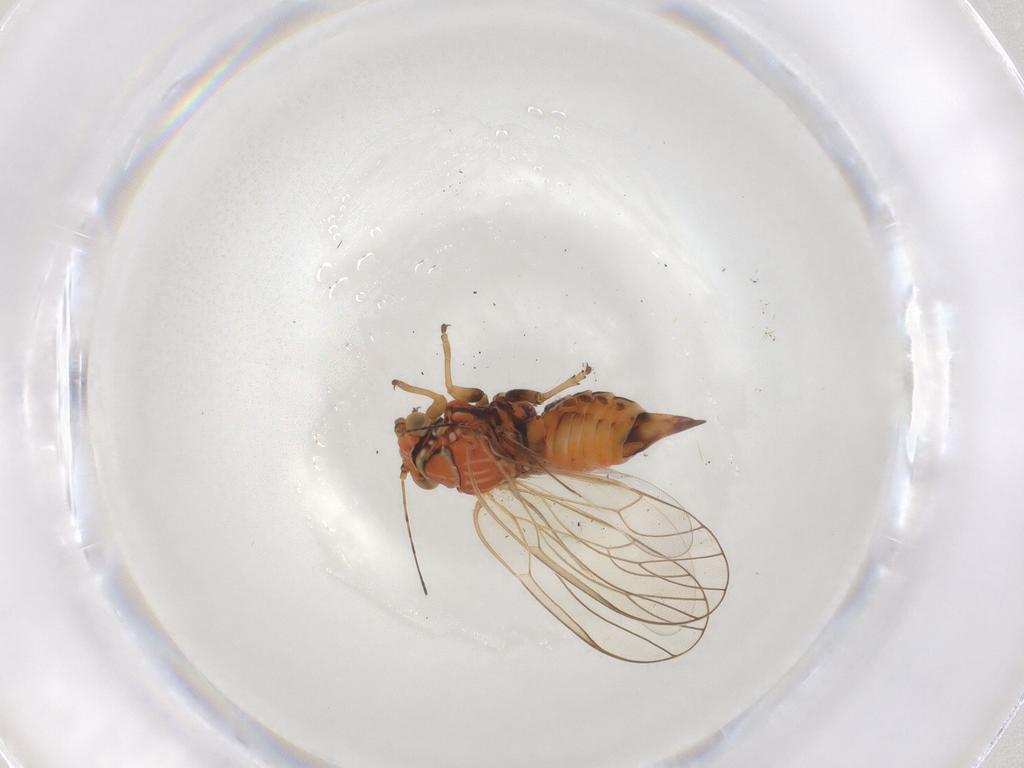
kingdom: Animalia
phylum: Arthropoda
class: Insecta
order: Hemiptera
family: Psyllidae
